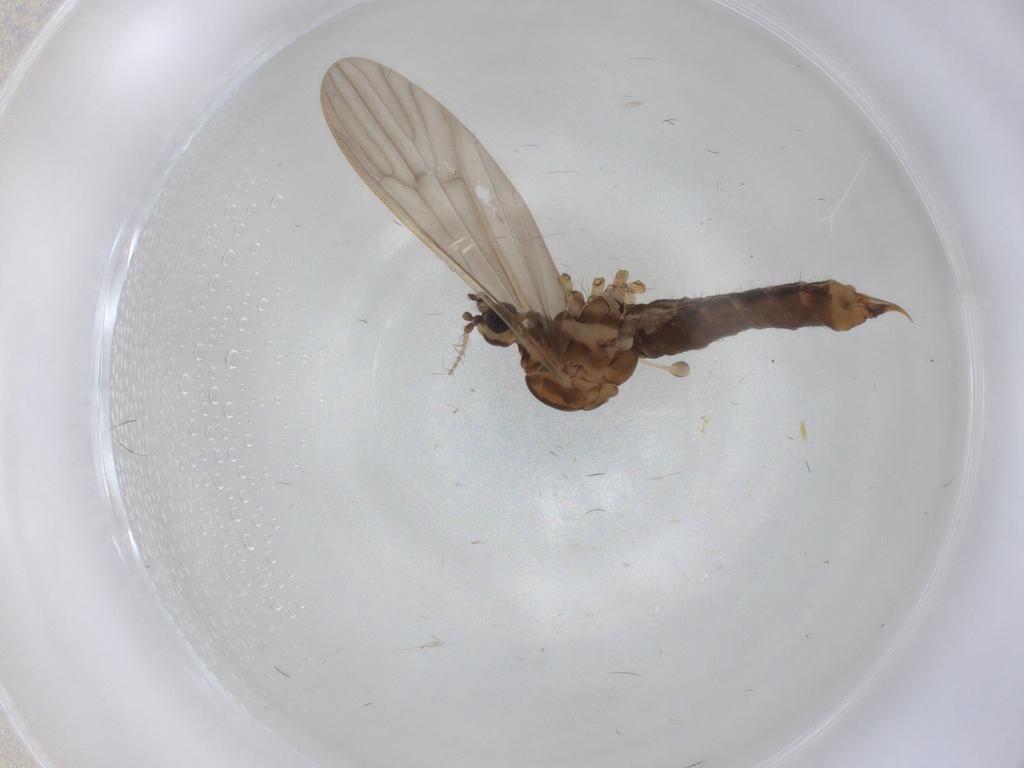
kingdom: Animalia
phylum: Arthropoda
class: Insecta
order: Diptera
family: Limoniidae
